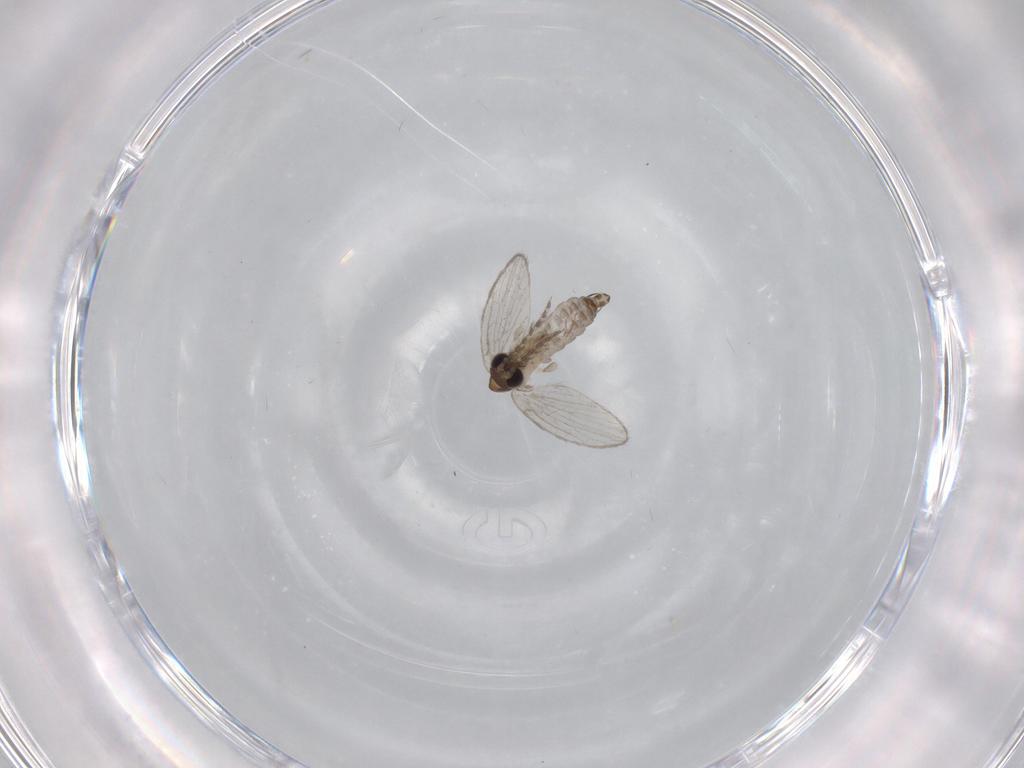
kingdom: Animalia
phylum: Arthropoda
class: Insecta
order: Diptera
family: Psychodidae
